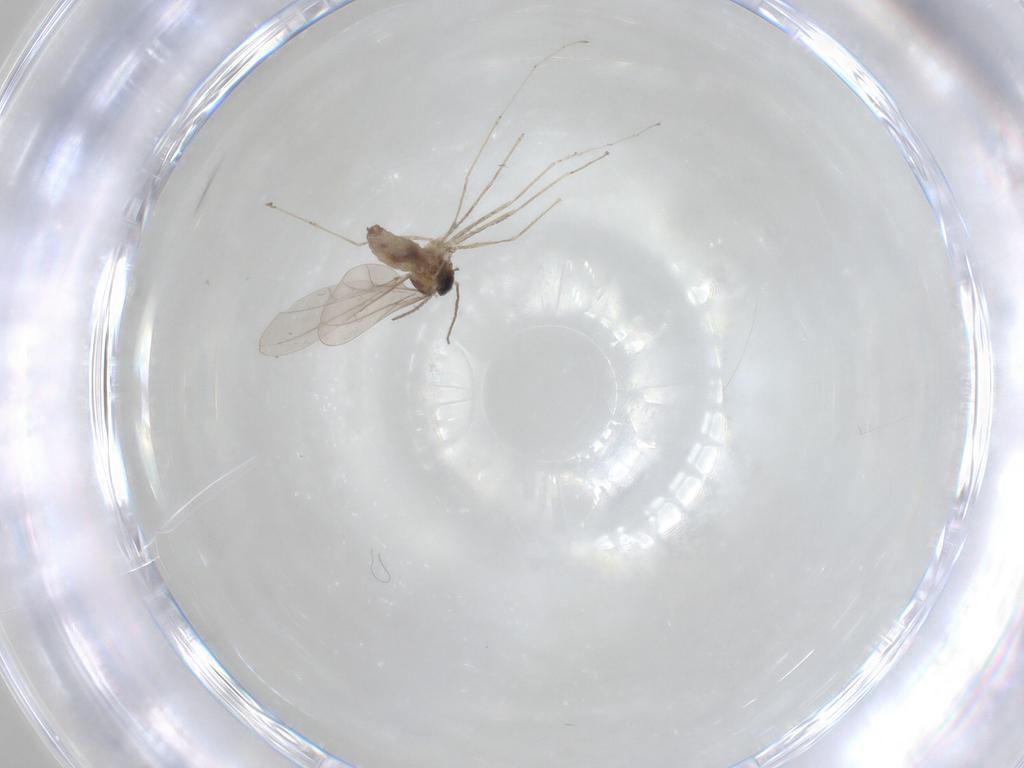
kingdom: Animalia
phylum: Arthropoda
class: Insecta
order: Diptera
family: Cecidomyiidae
